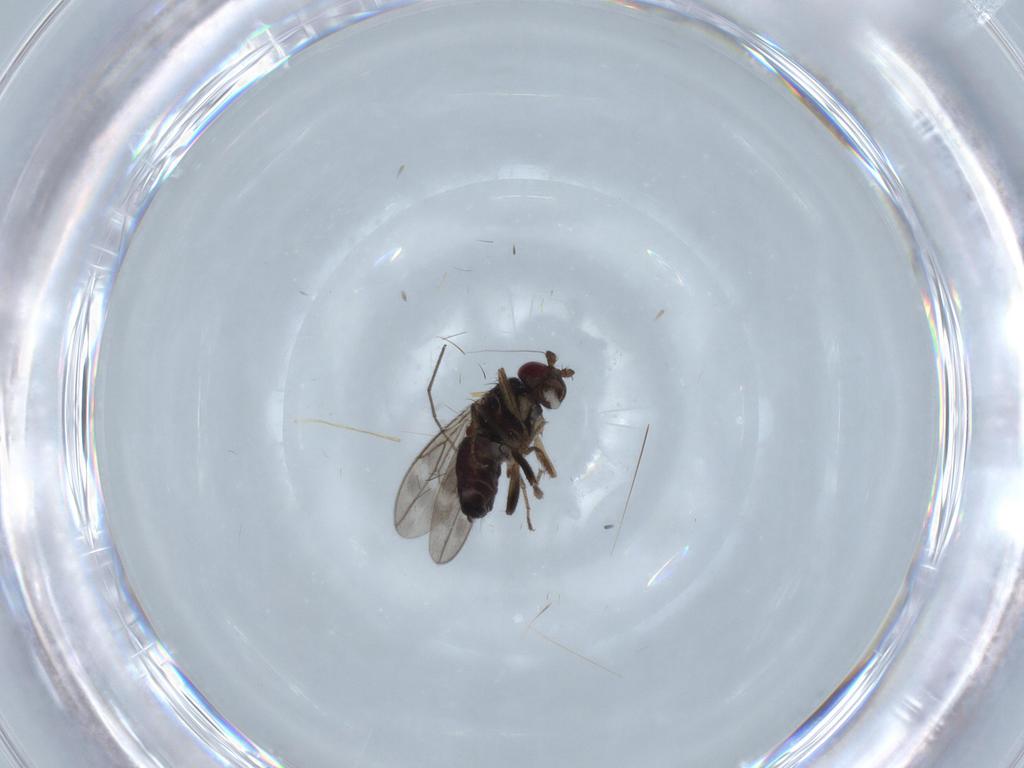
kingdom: Animalia
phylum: Arthropoda
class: Insecta
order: Diptera
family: Sphaeroceridae
